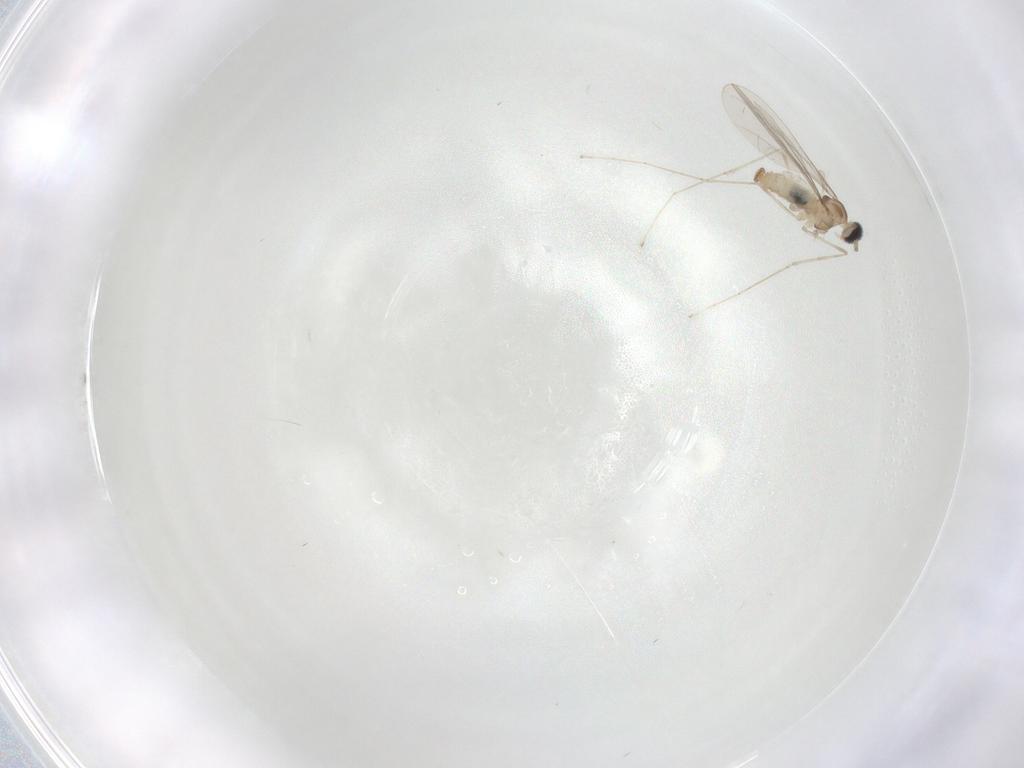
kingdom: Animalia
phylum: Arthropoda
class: Insecta
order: Diptera
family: Cecidomyiidae
